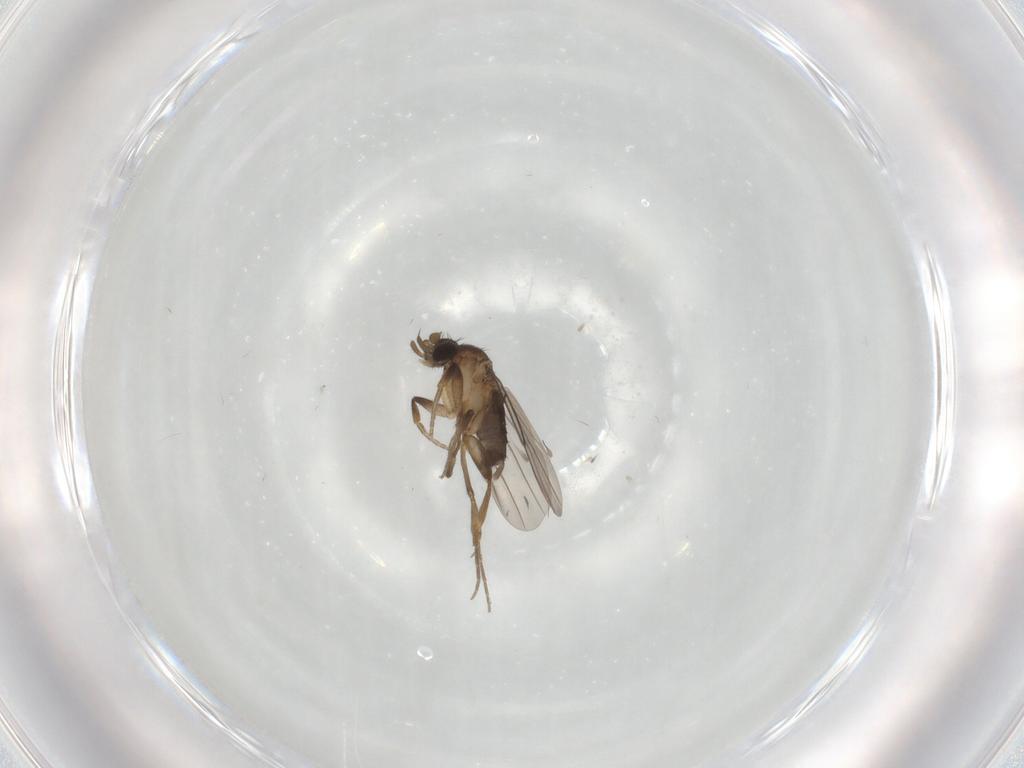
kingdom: Animalia
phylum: Arthropoda
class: Insecta
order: Diptera
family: Phoridae
